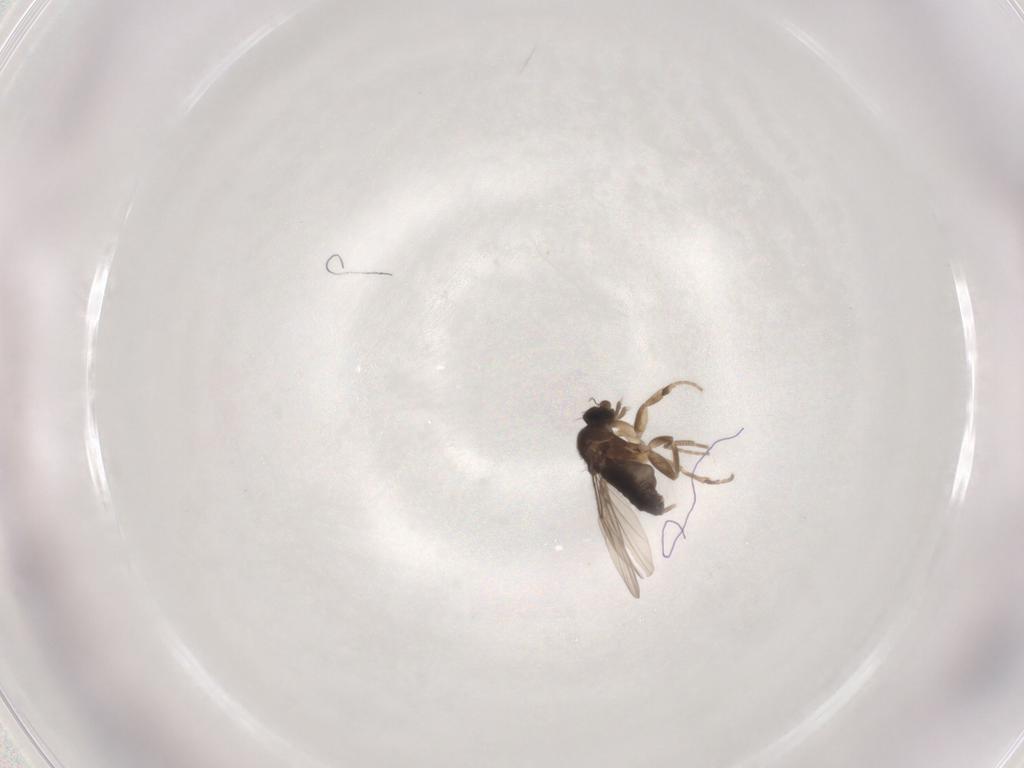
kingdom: Animalia
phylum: Arthropoda
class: Insecta
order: Diptera
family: Phoridae
